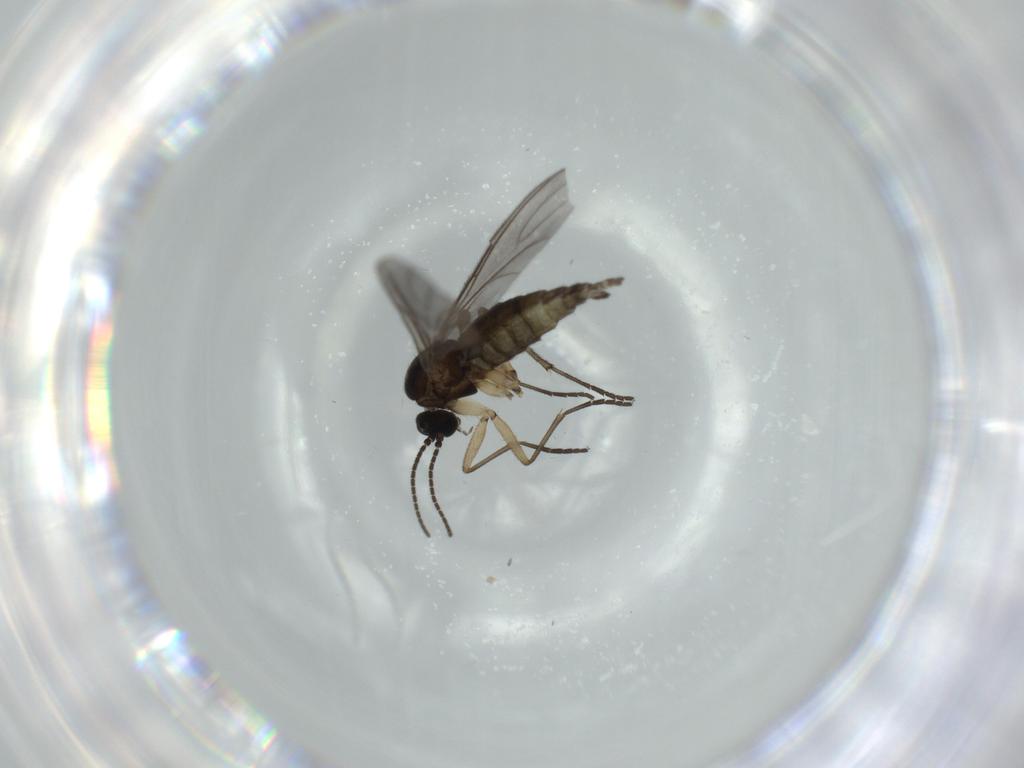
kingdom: Animalia
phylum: Arthropoda
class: Insecta
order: Diptera
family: Sciaridae
